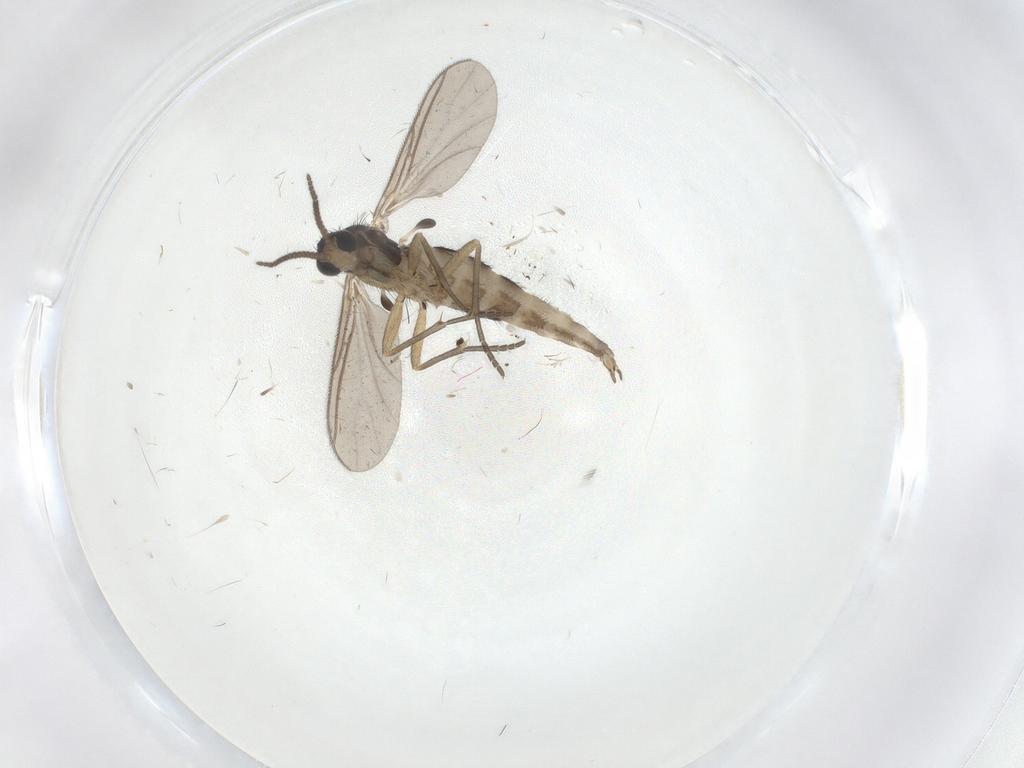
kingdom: Animalia
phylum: Arthropoda
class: Insecta
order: Diptera
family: Sciaridae
